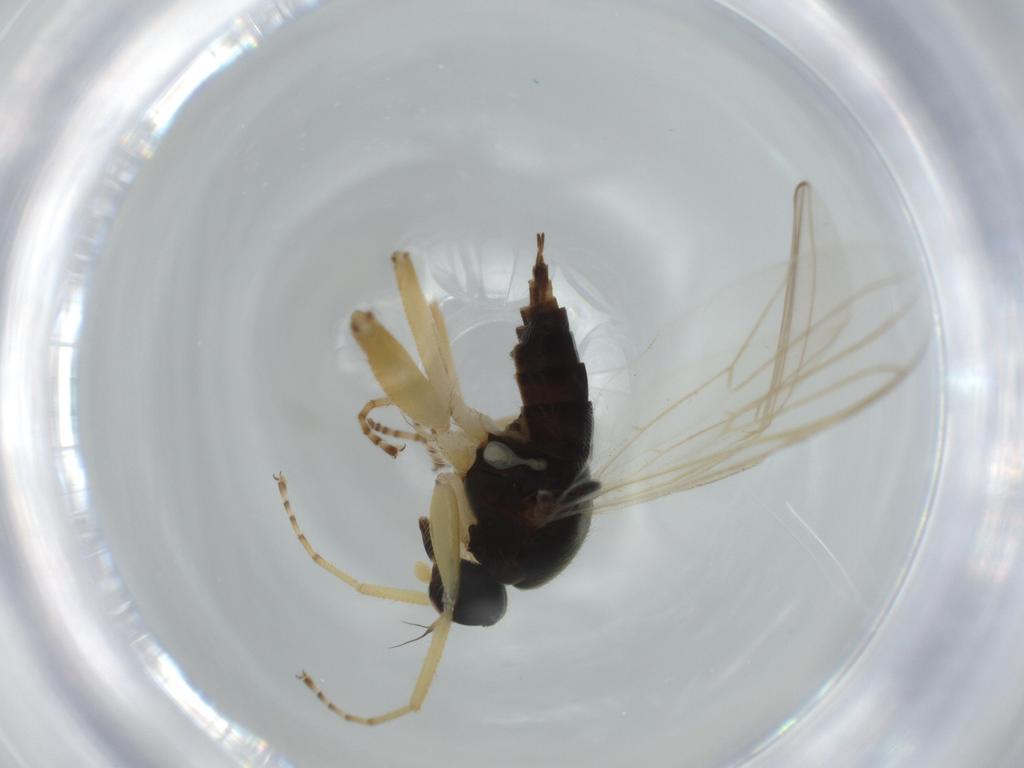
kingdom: Animalia
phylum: Arthropoda
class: Insecta
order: Diptera
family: Hybotidae
